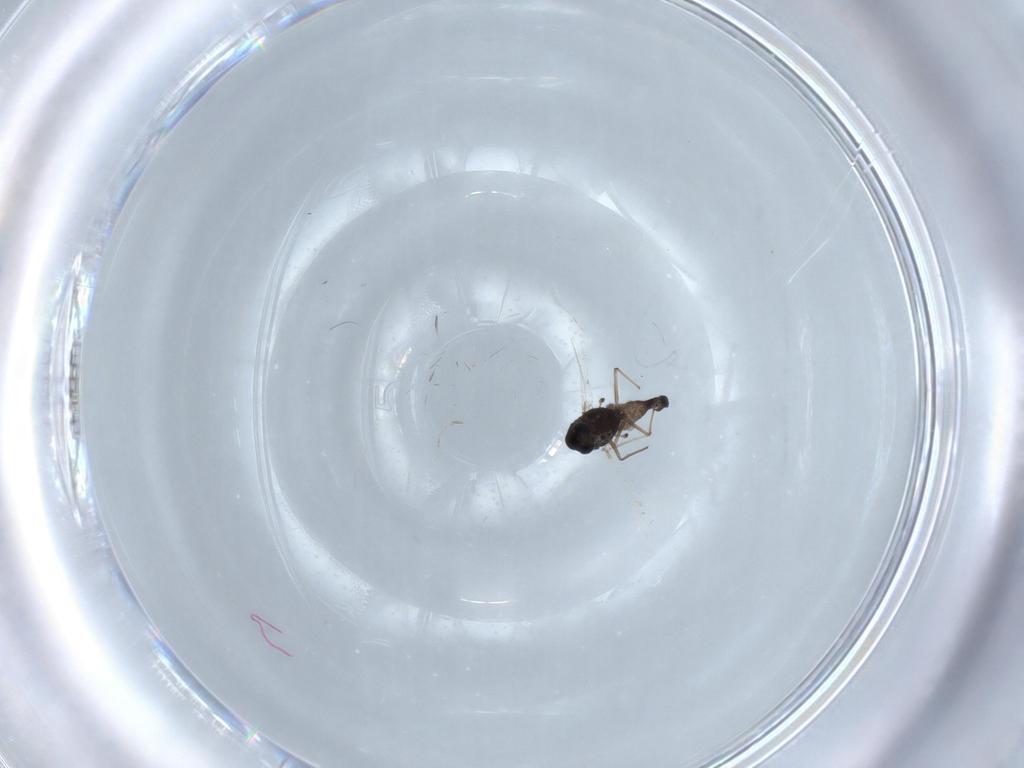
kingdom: Animalia
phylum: Arthropoda
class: Insecta
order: Diptera
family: Chironomidae
